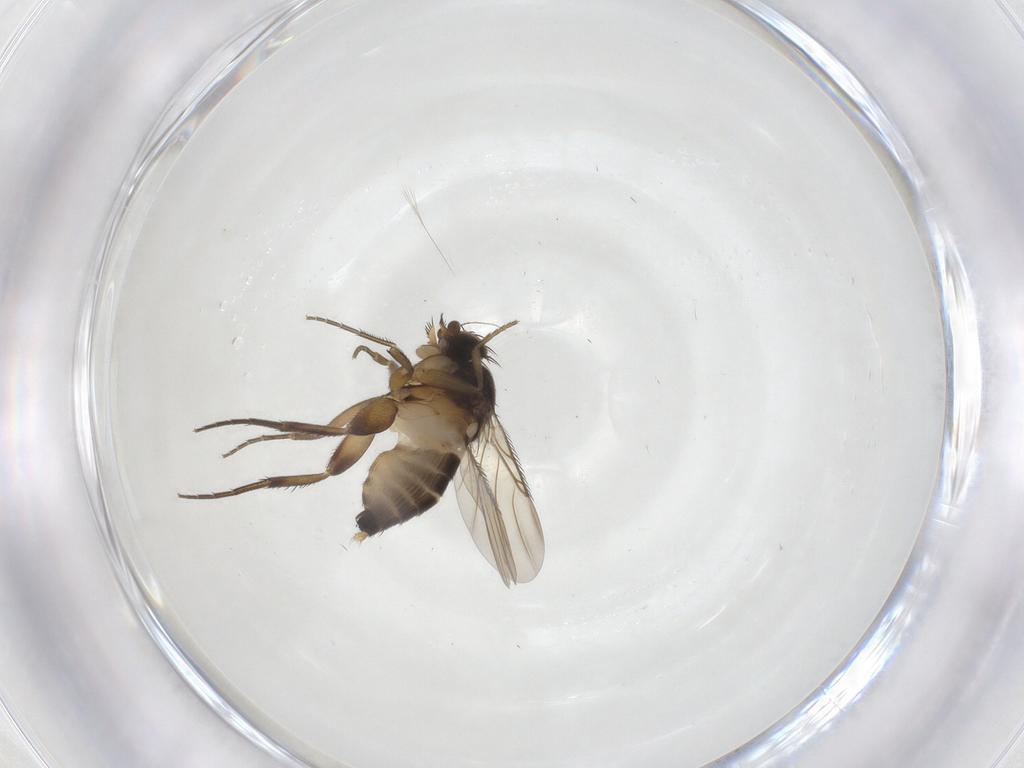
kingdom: Animalia
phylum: Arthropoda
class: Insecta
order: Diptera
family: Phoridae
